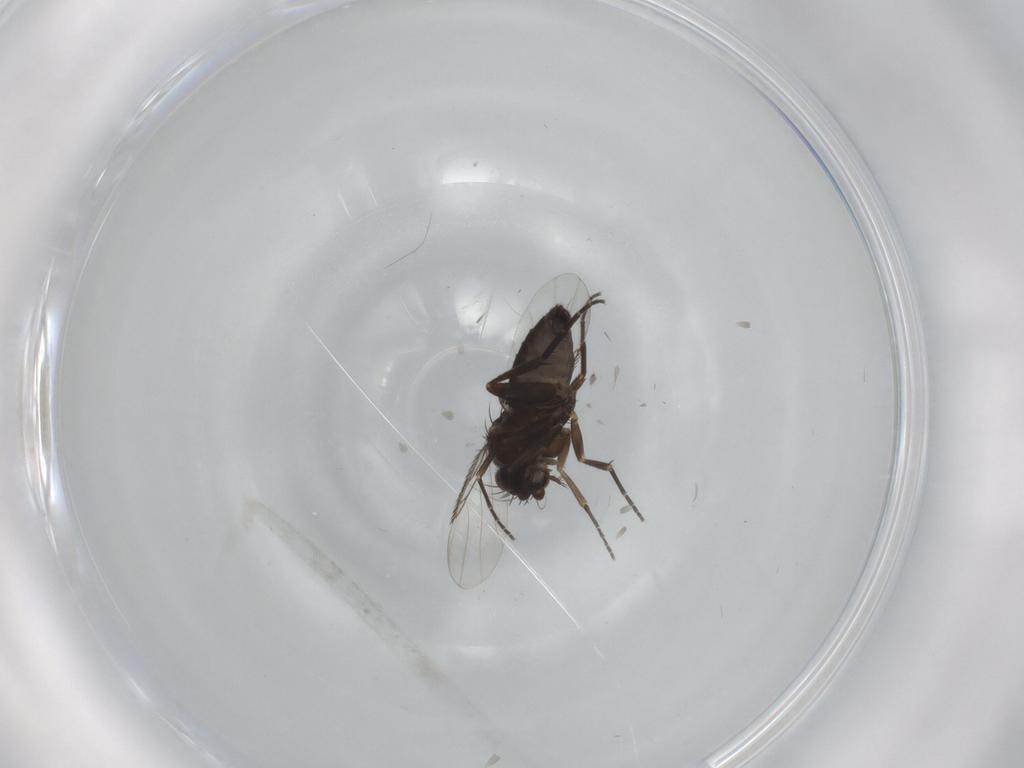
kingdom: Animalia
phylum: Arthropoda
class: Insecta
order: Diptera
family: Phoridae
